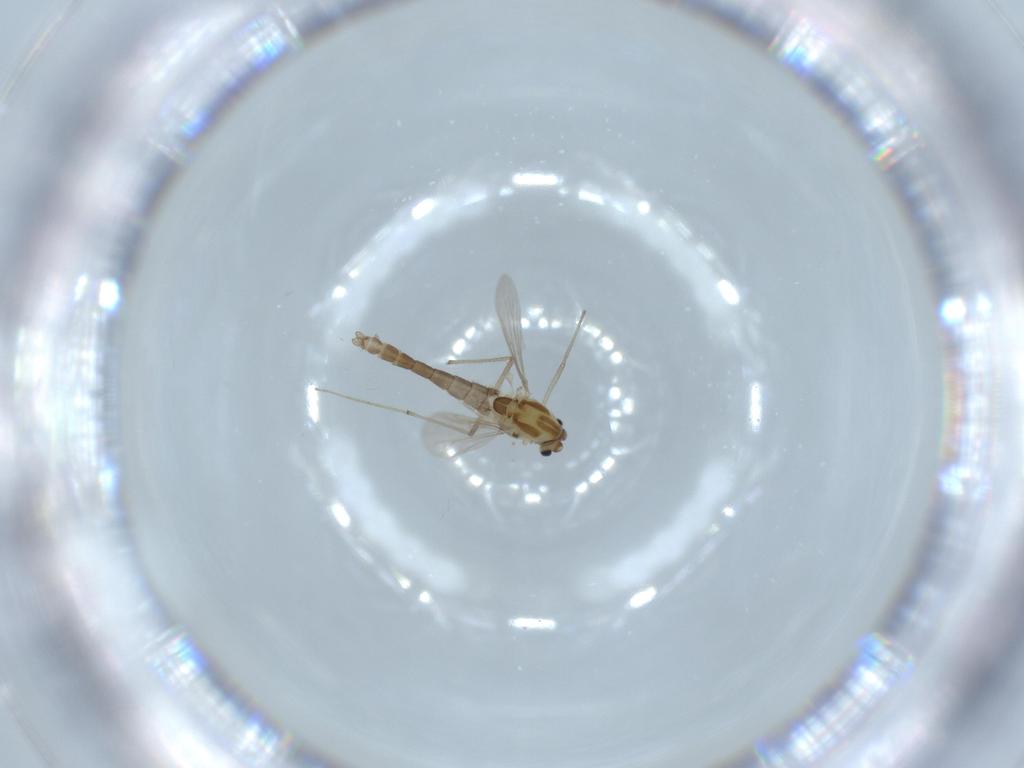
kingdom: Animalia
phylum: Arthropoda
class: Insecta
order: Diptera
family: Chironomidae
